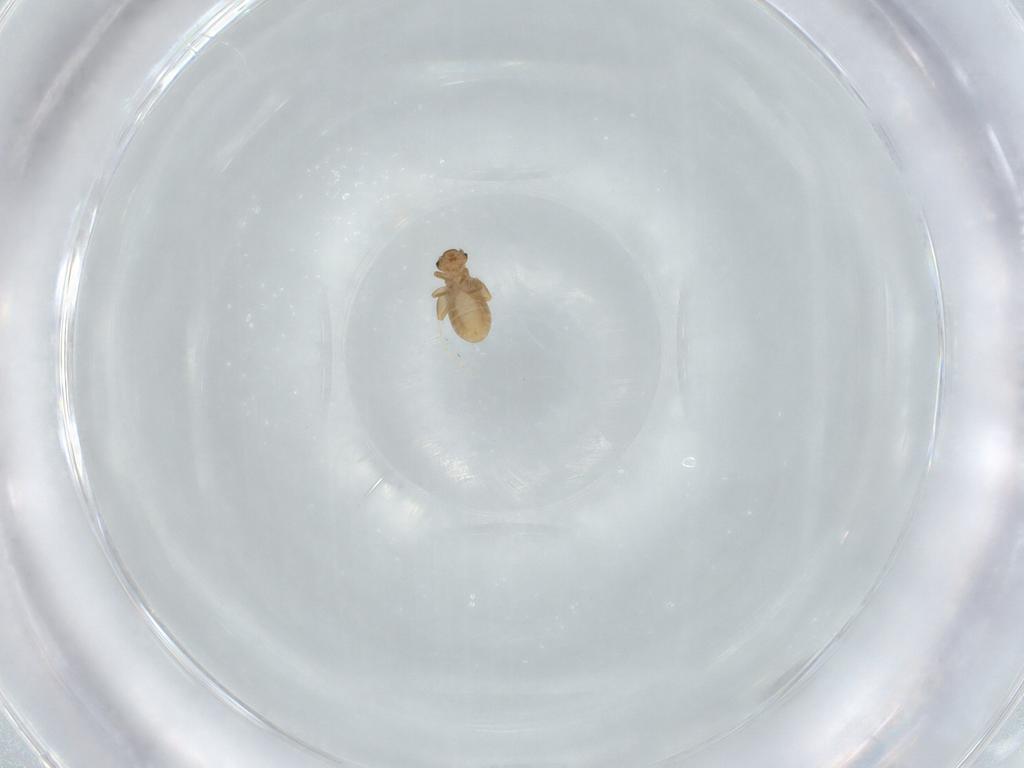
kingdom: Animalia
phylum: Arthropoda
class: Insecta
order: Psocodea
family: Liposcelididae
